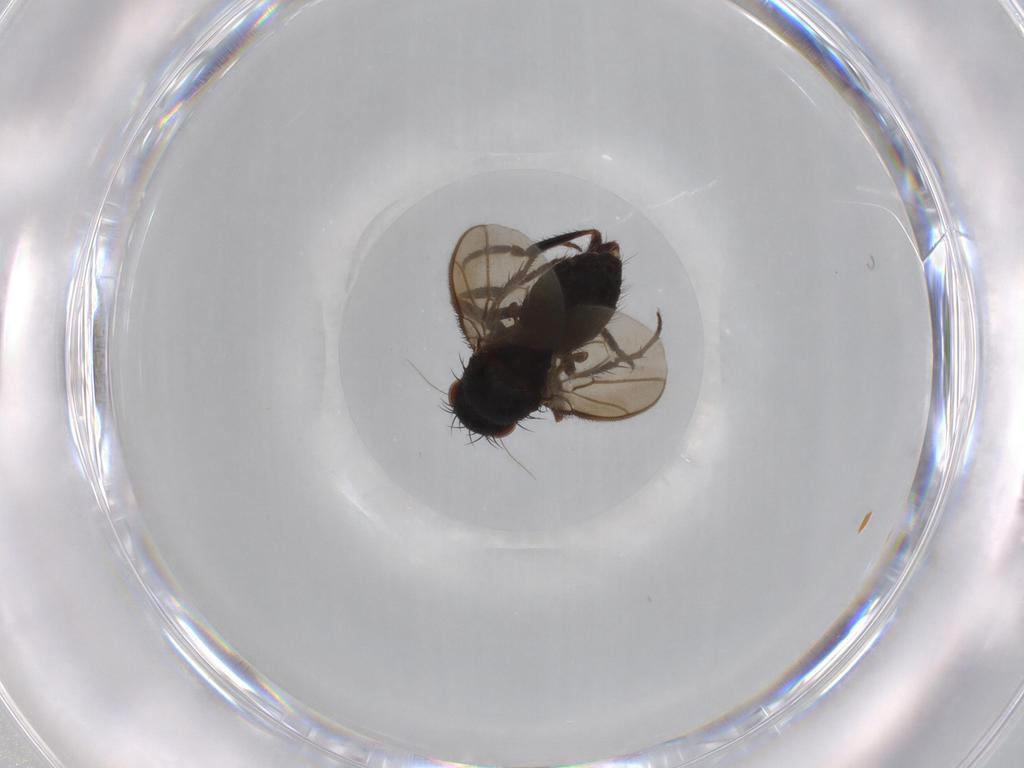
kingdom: Animalia
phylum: Arthropoda
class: Insecta
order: Diptera
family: Sphaeroceridae
